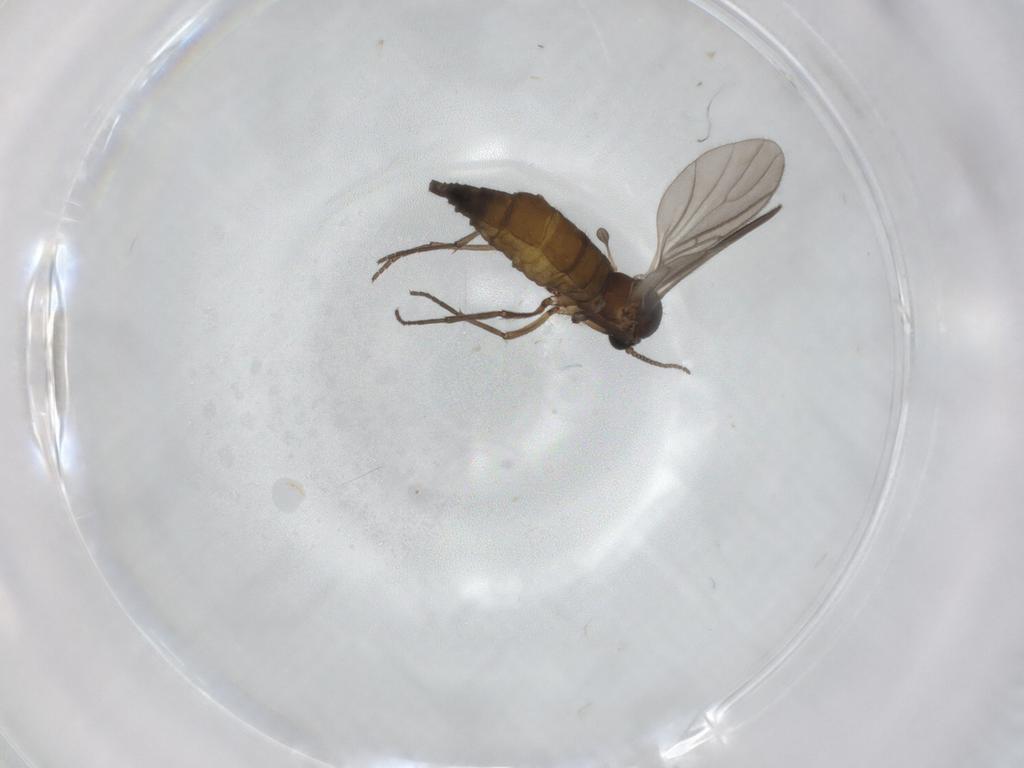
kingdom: Animalia
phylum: Arthropoda
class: Insecta
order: Diptera
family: Sciaridae
